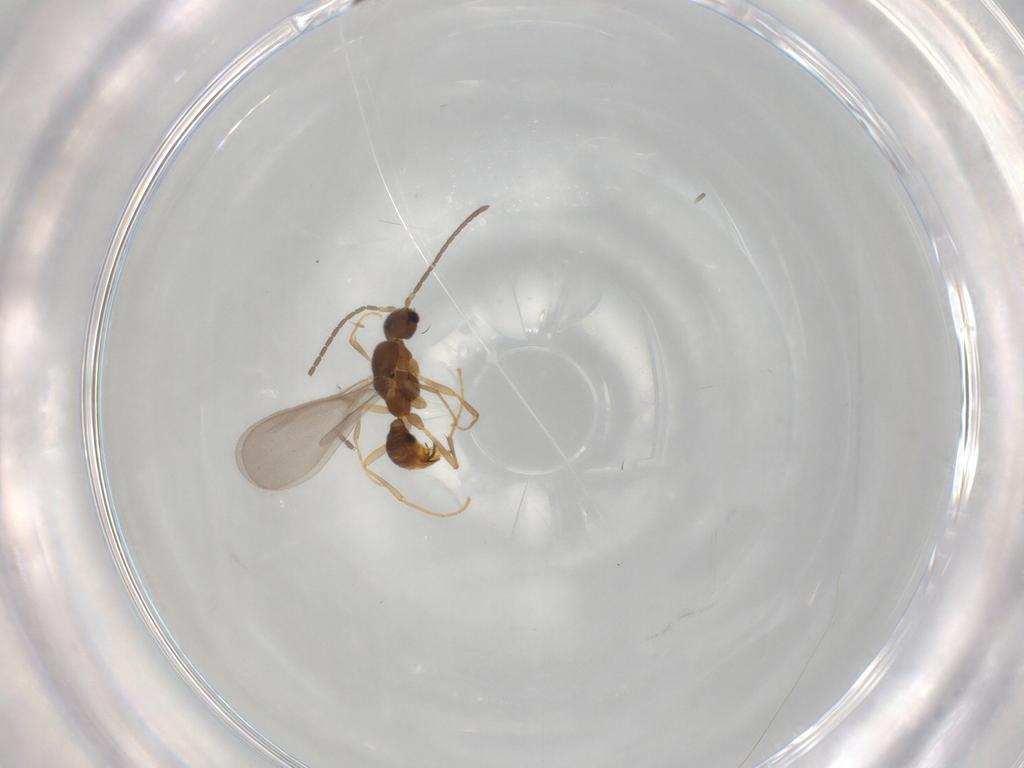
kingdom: Animalia
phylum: Arthropoda
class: Insecta
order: Hymenoptera
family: Formicidae
